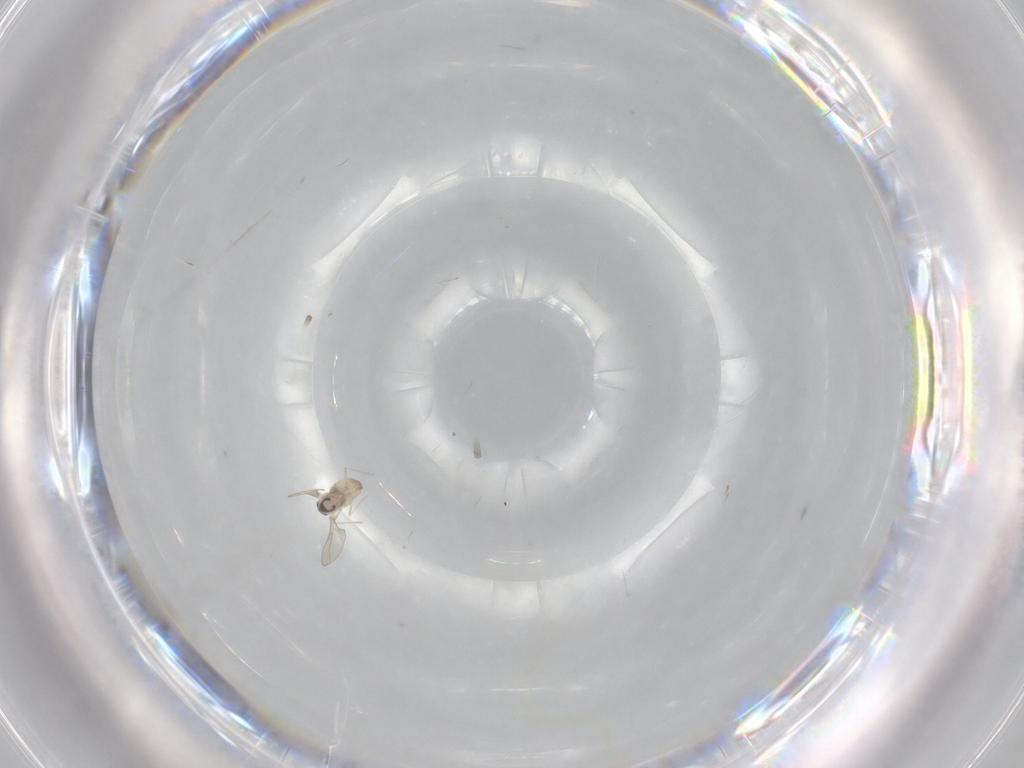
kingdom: Animalia
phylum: Arthropoda
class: Insecta
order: Diptera
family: Cecidomyiidae
